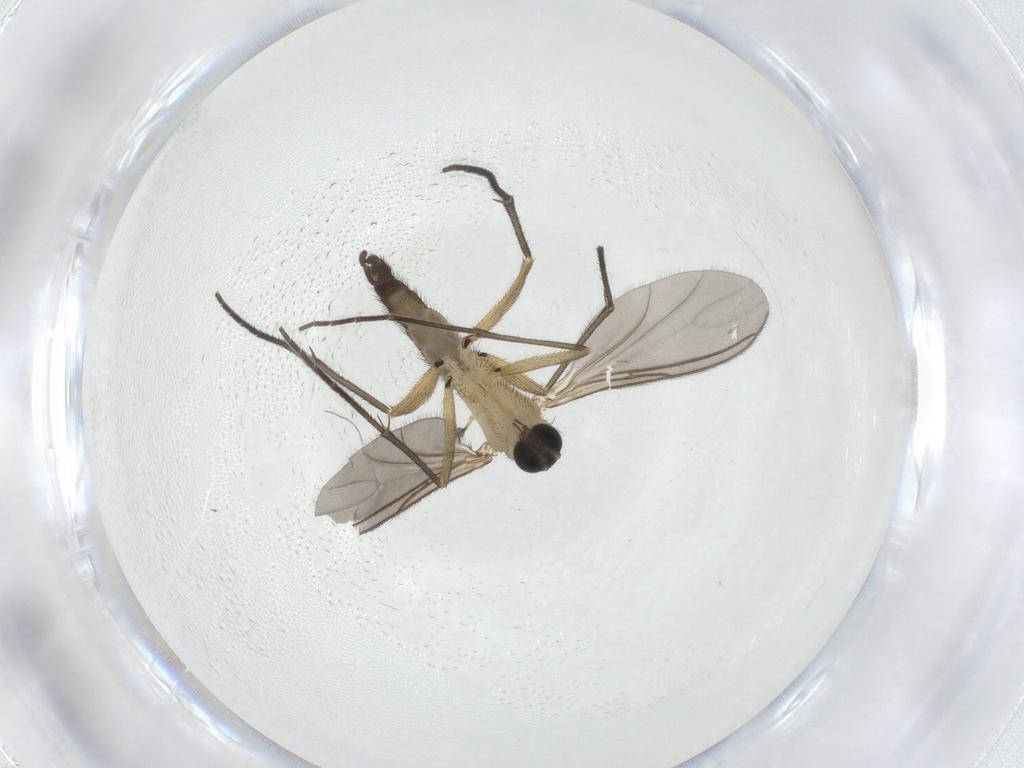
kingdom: Animalia
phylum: Arthropoda
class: Insecta
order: Diptera
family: Sciaridae
